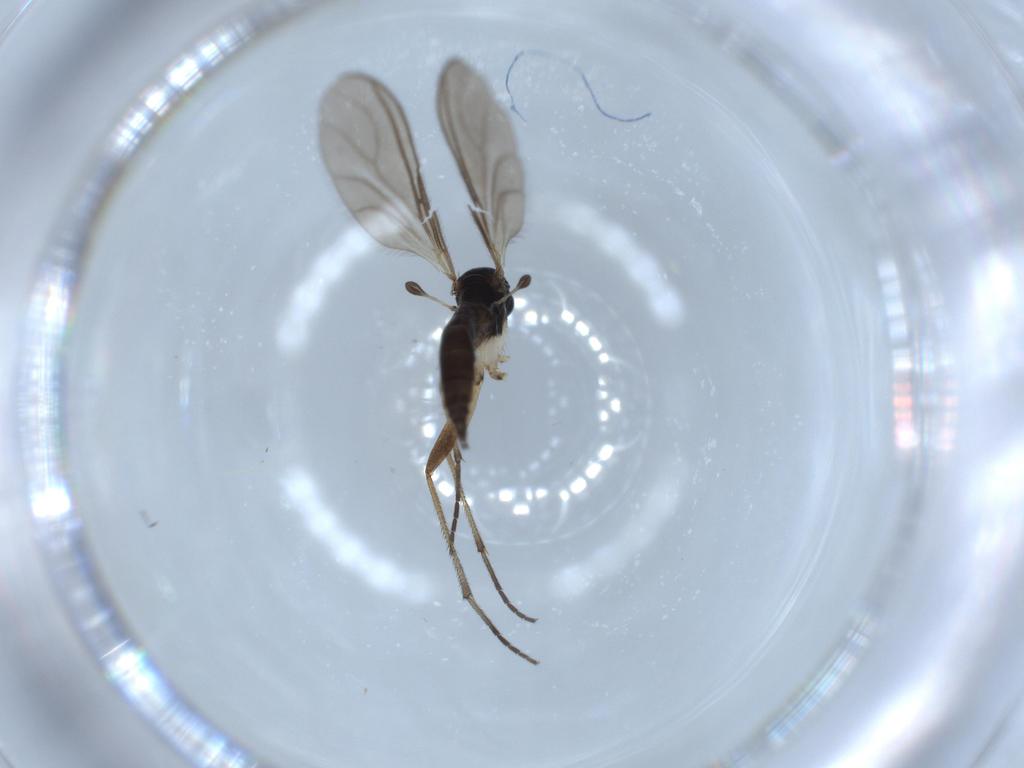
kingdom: Animalia
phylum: Arthropoda
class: Insecta
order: Diptera
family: Sciaridae
